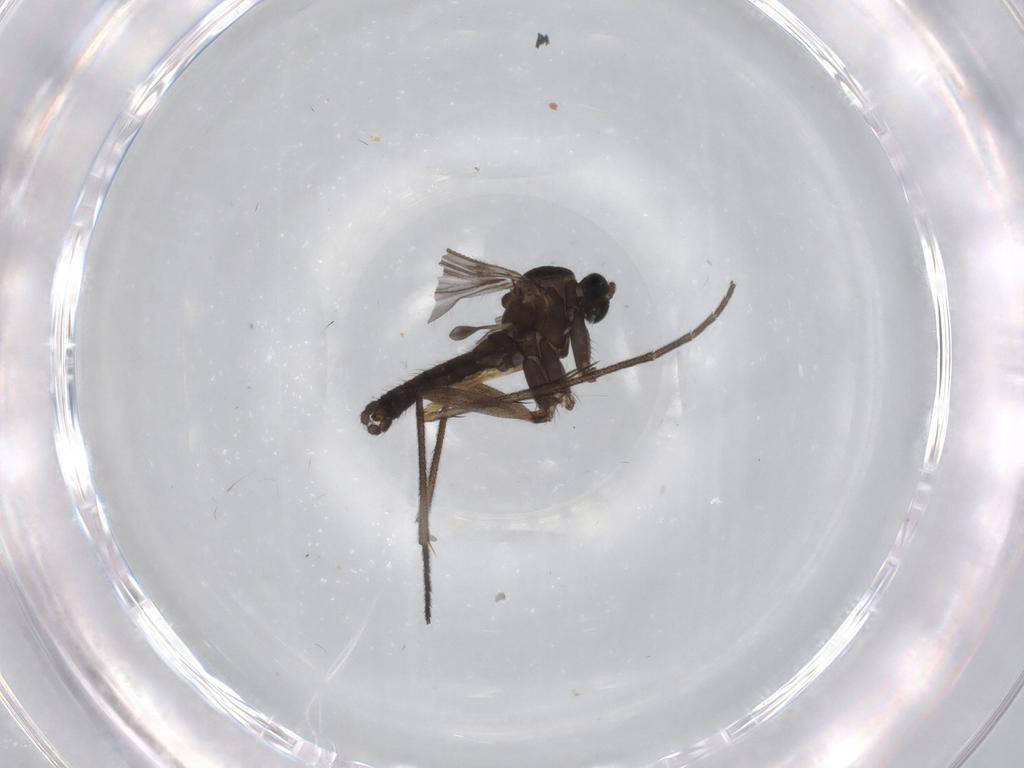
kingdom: Animalia
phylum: Arthropoda
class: Insecta
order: Diptera
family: Sciaridae
